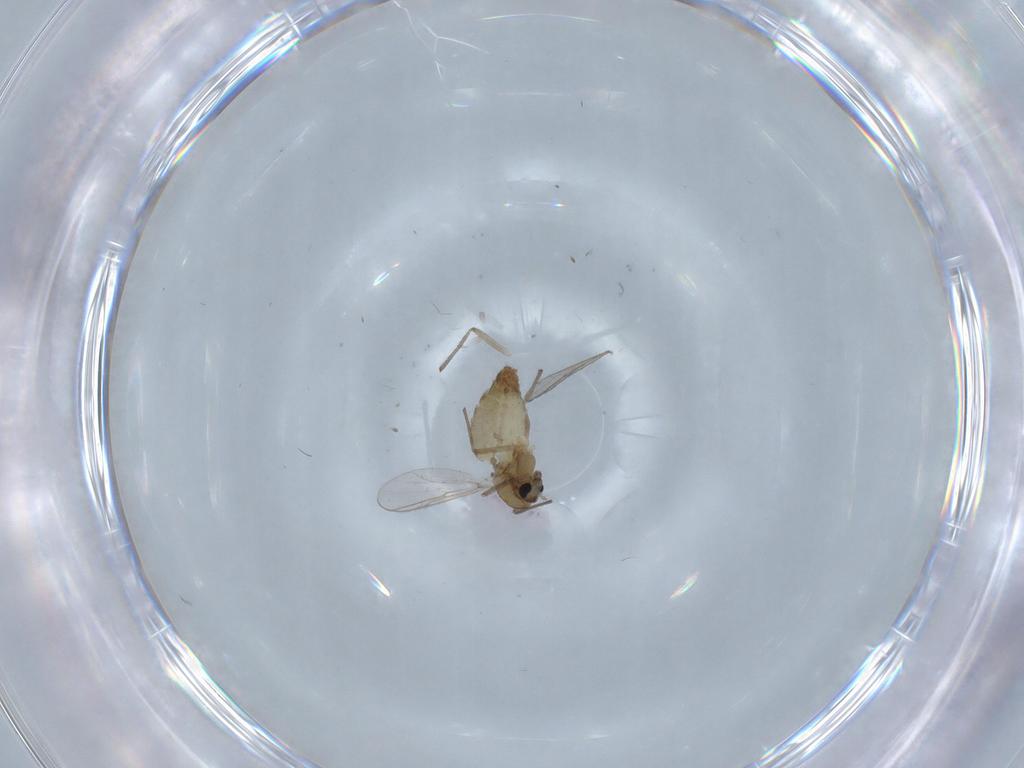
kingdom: Animalia
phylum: Arthropoda
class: Insecta
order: Diptera
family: Chironomidae
